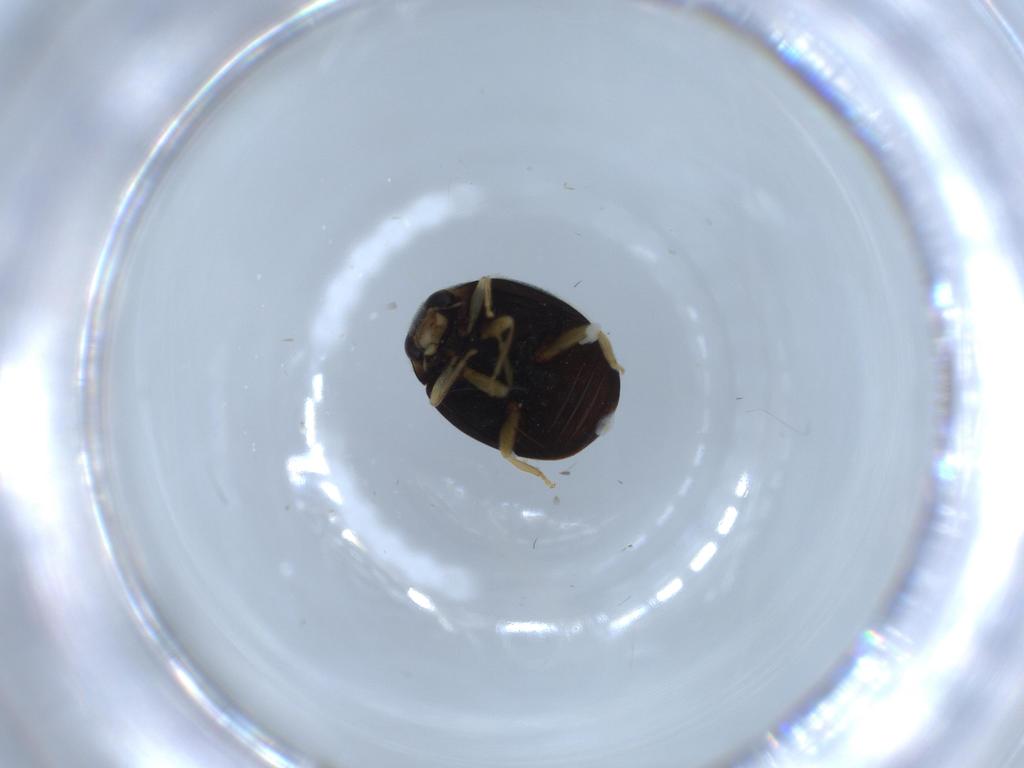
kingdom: Animalia
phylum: Arthropoda
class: Insecta
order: Coleoptera
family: Coccinellidae
